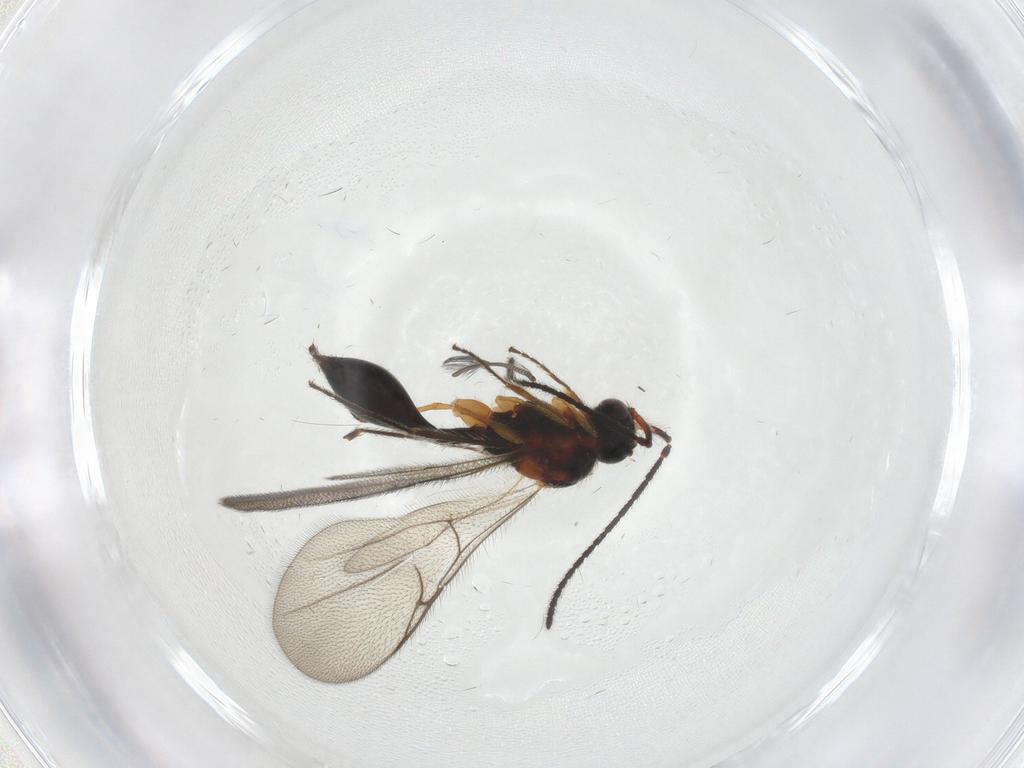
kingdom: Animalia
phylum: Arthropoda
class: Insecta
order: Hymenoptera
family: Diapriidae
